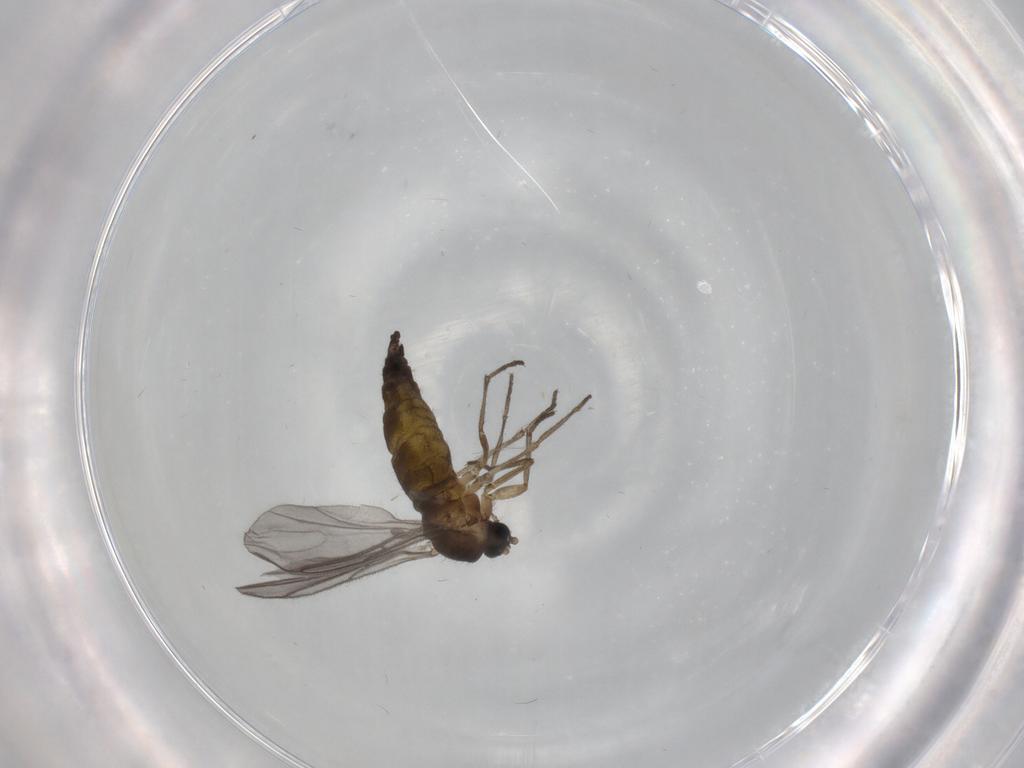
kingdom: Animalia
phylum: Arthropoda
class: Insecta
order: Diptera
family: Sciaridae
